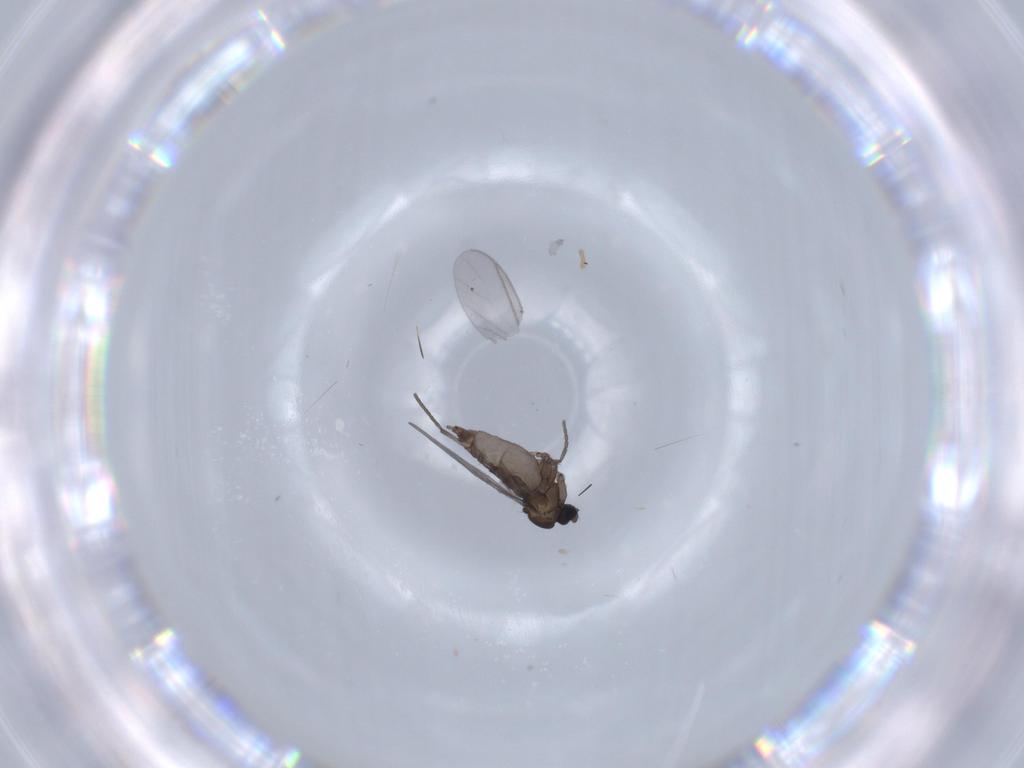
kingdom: Animalia
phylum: Arthropoda
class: Insecta
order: Diptera
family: Sciaridae
